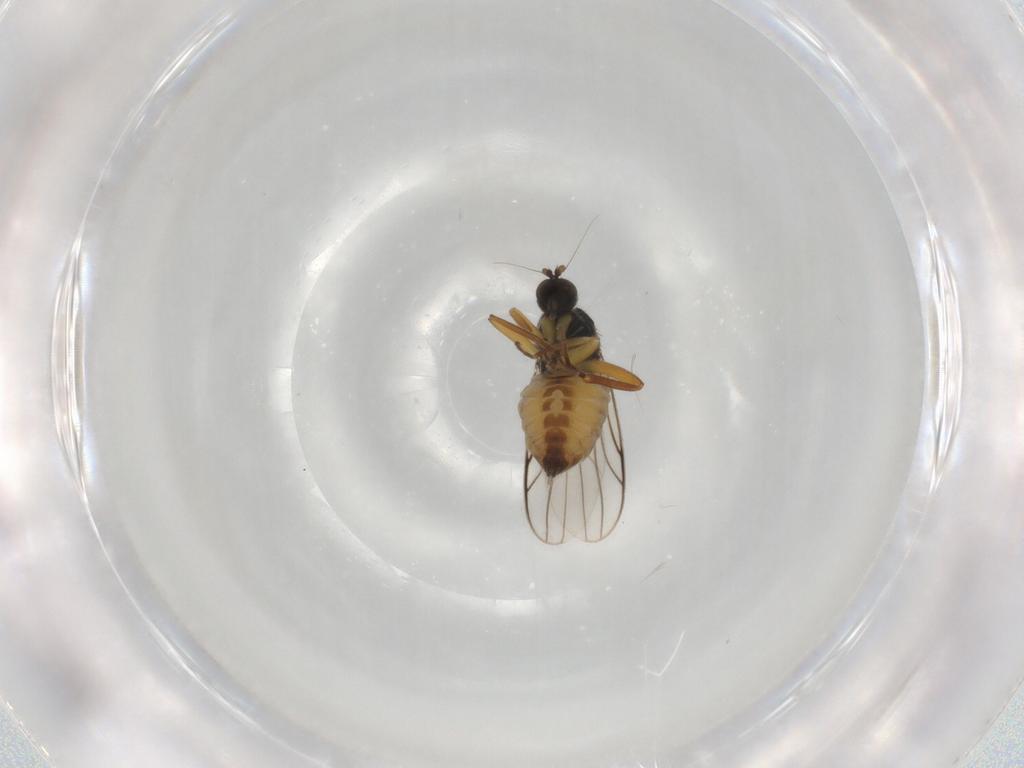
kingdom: Animalia
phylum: Arthropoda
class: Insecta
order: Diptera
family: Hybotidae
